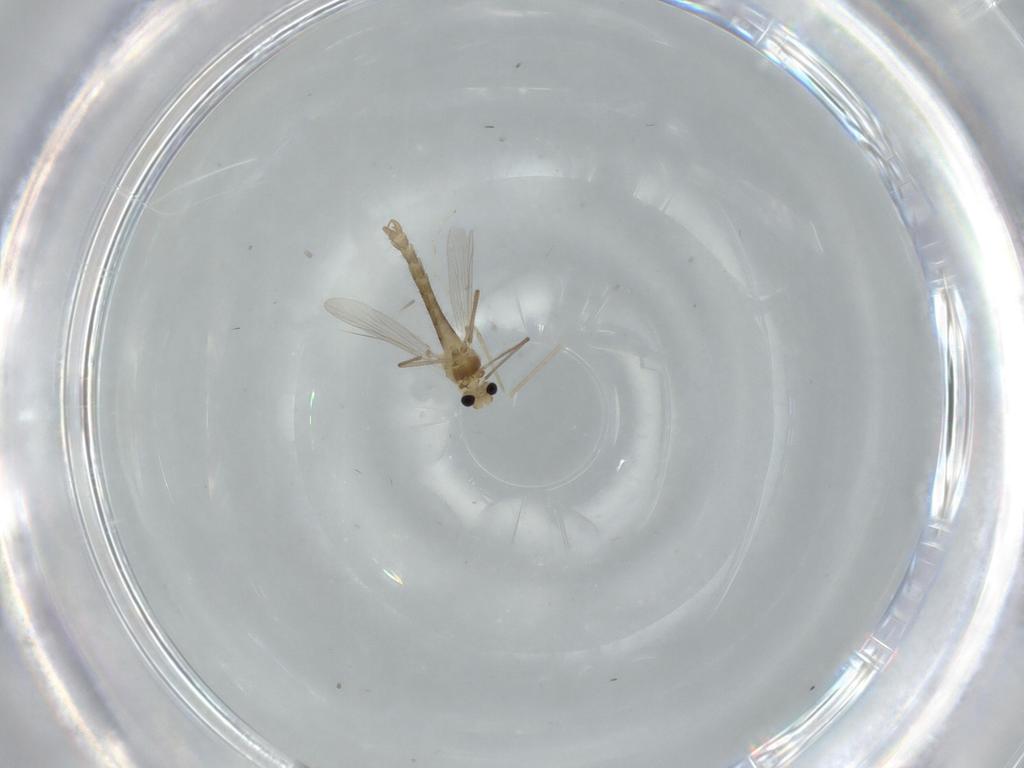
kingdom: Animalia
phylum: Arthropoda
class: Insecta
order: Diptera
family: Cecidomyiidae
